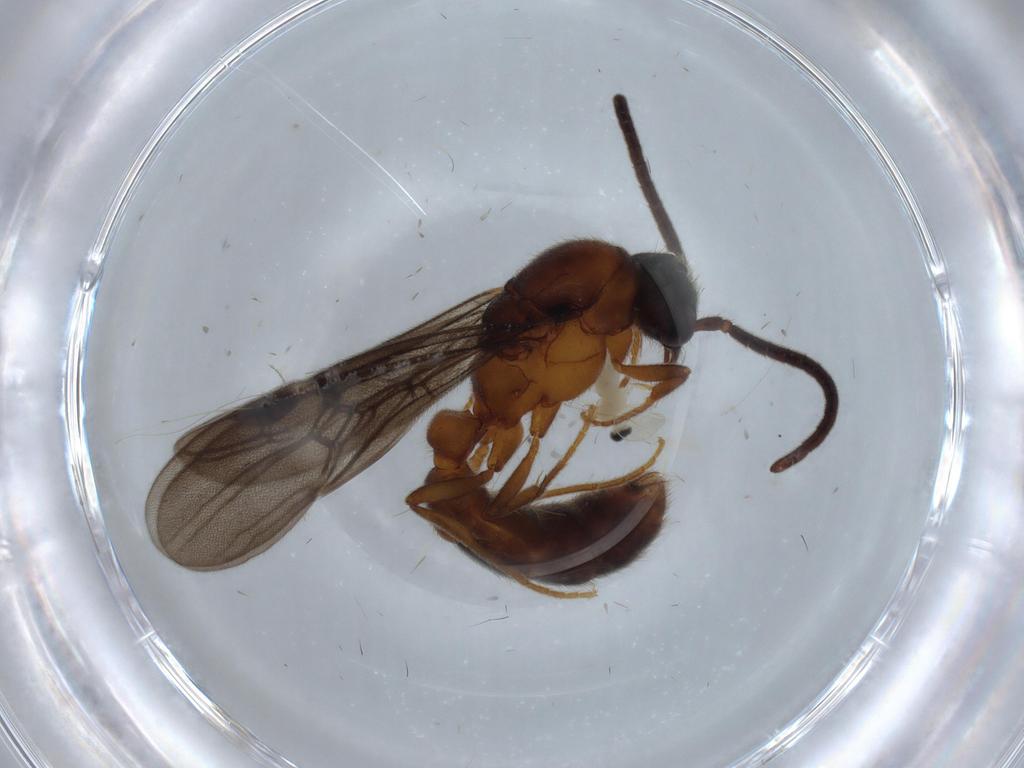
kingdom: Animalia
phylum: Arthropoda
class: Insecta
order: Hymenoptera
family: Formicidae
